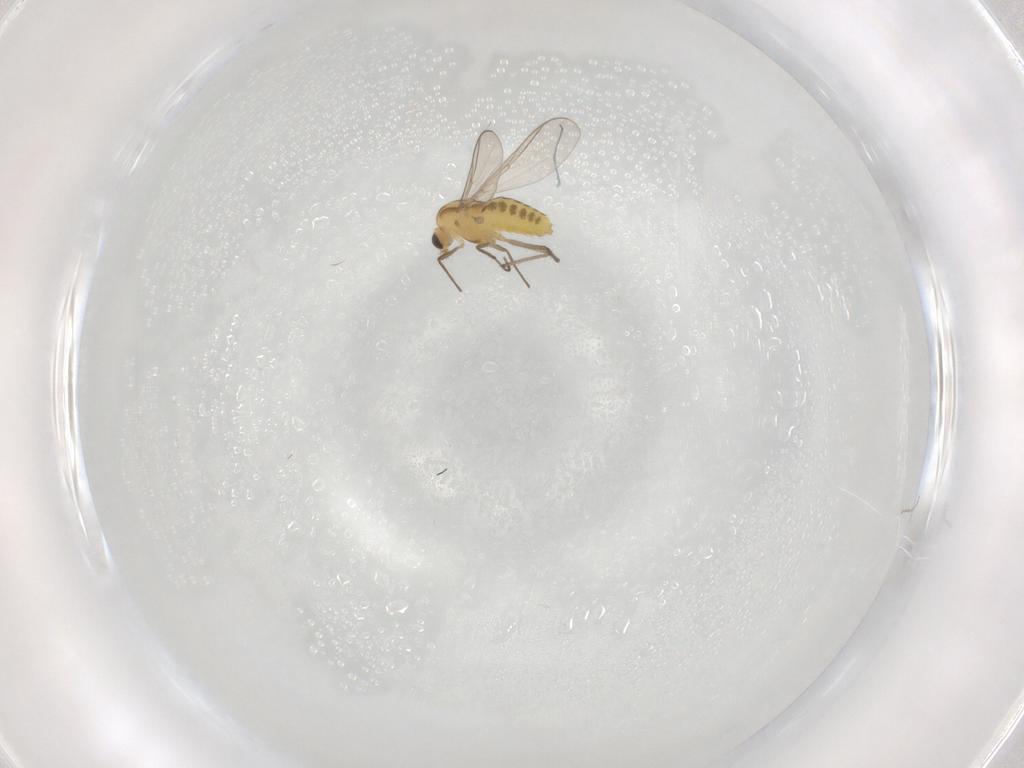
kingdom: Animalia
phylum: Arthropoda
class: Insecta
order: Diptera
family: Chironomidae
